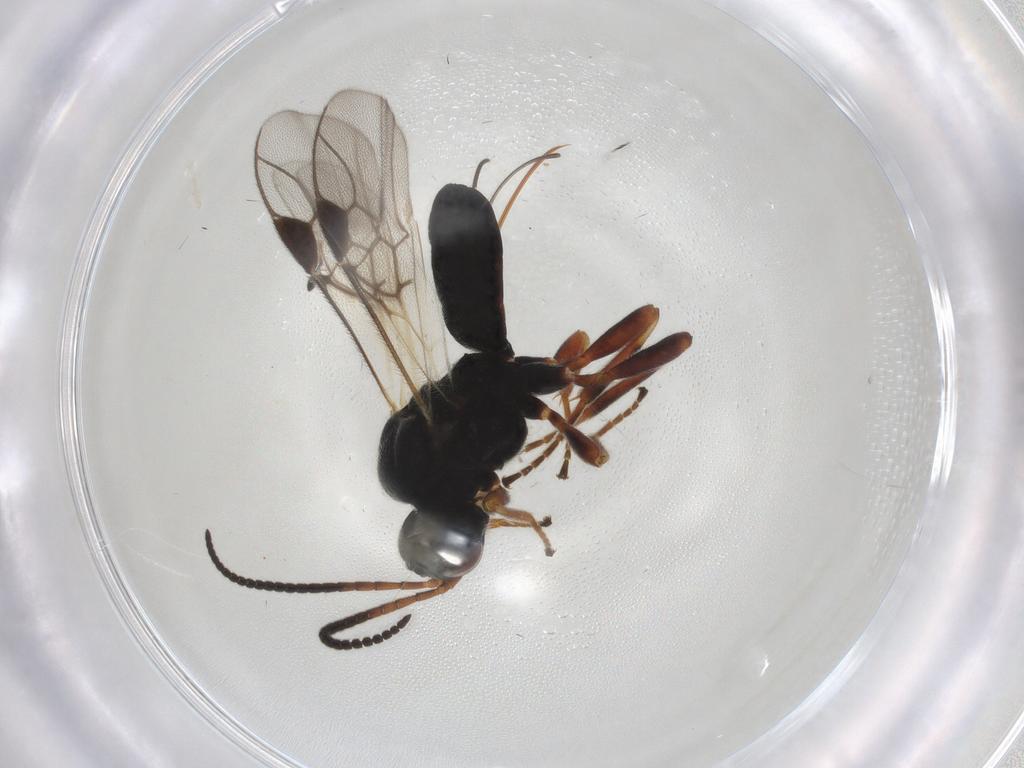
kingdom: Animalia
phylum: Arthropoda
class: Insecta
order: Hymenoptera
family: Braconidae
